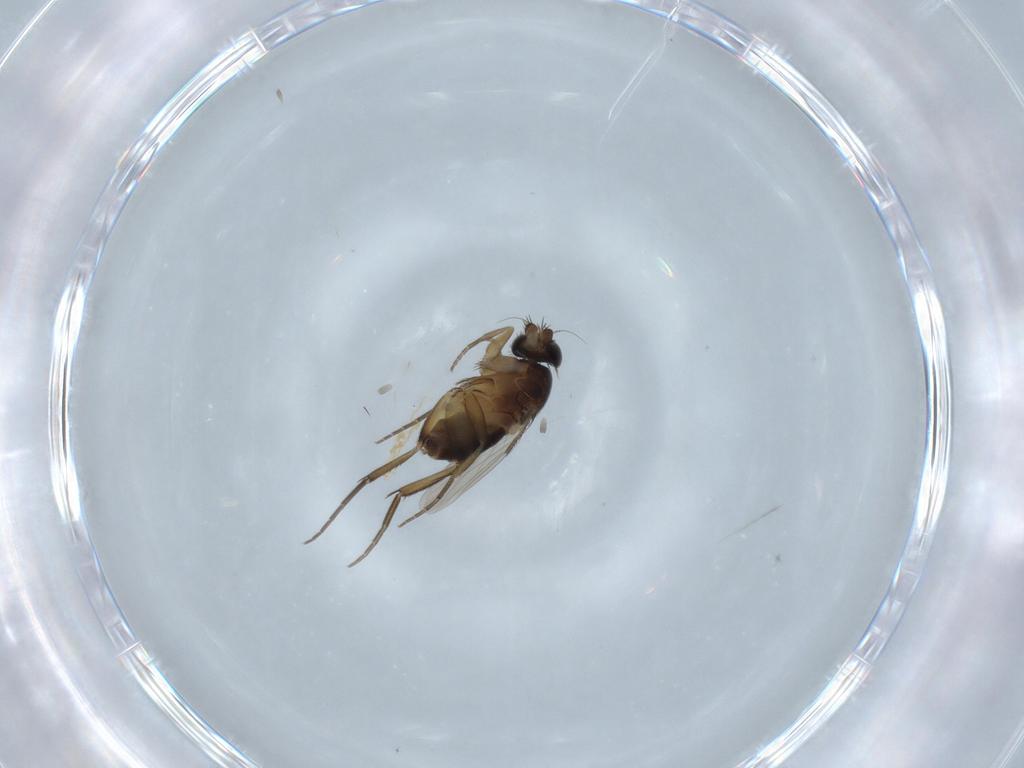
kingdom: Animalia
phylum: Arthropoda
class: Insecta
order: Diptera
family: Phoridae
